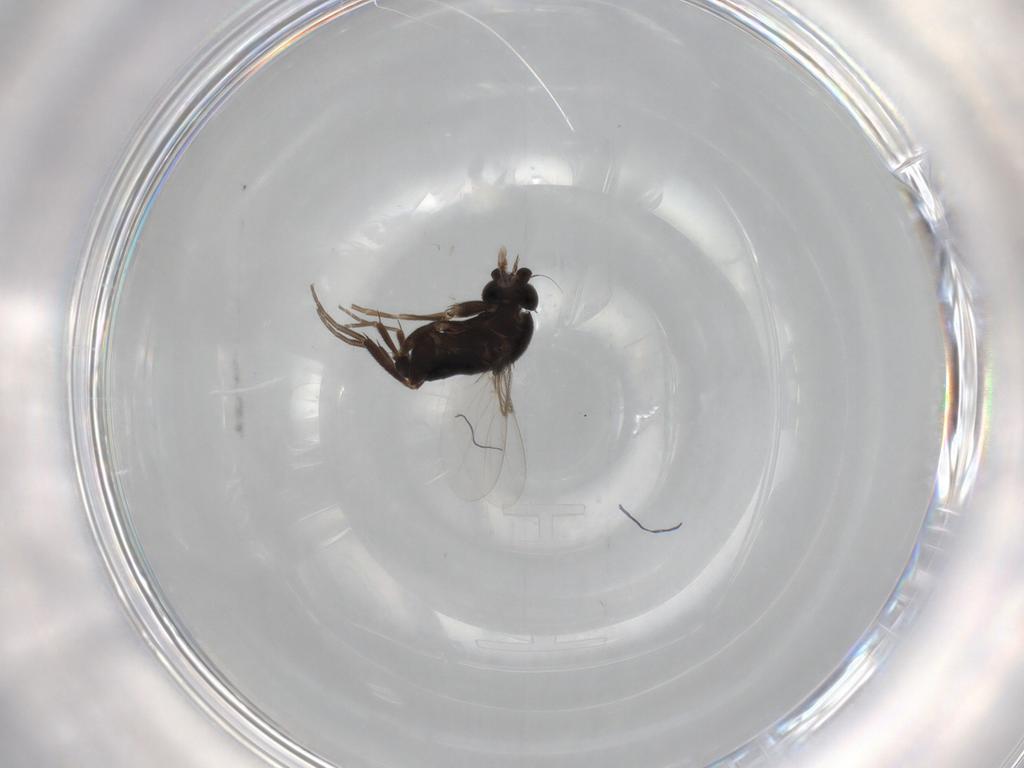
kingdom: Animalia
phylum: Arthropoda
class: Insecta
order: Diptera
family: Phoridae
